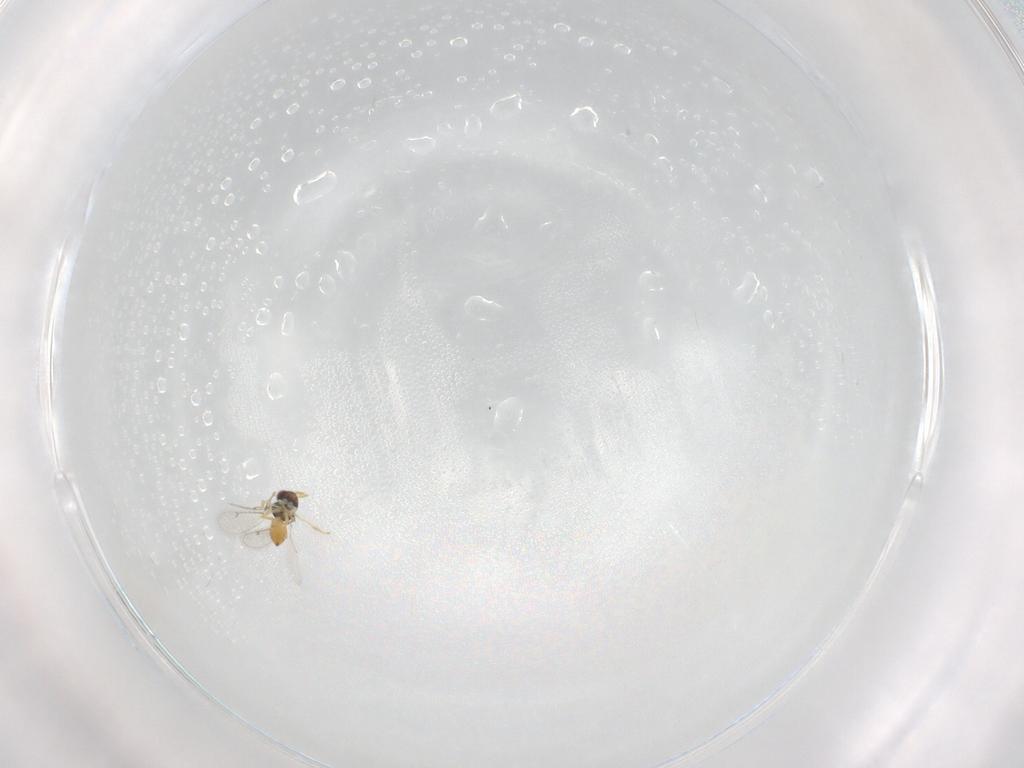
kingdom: Animalia
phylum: Arthropoda
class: Insecta
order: Hymenoptera
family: Eulophidae
